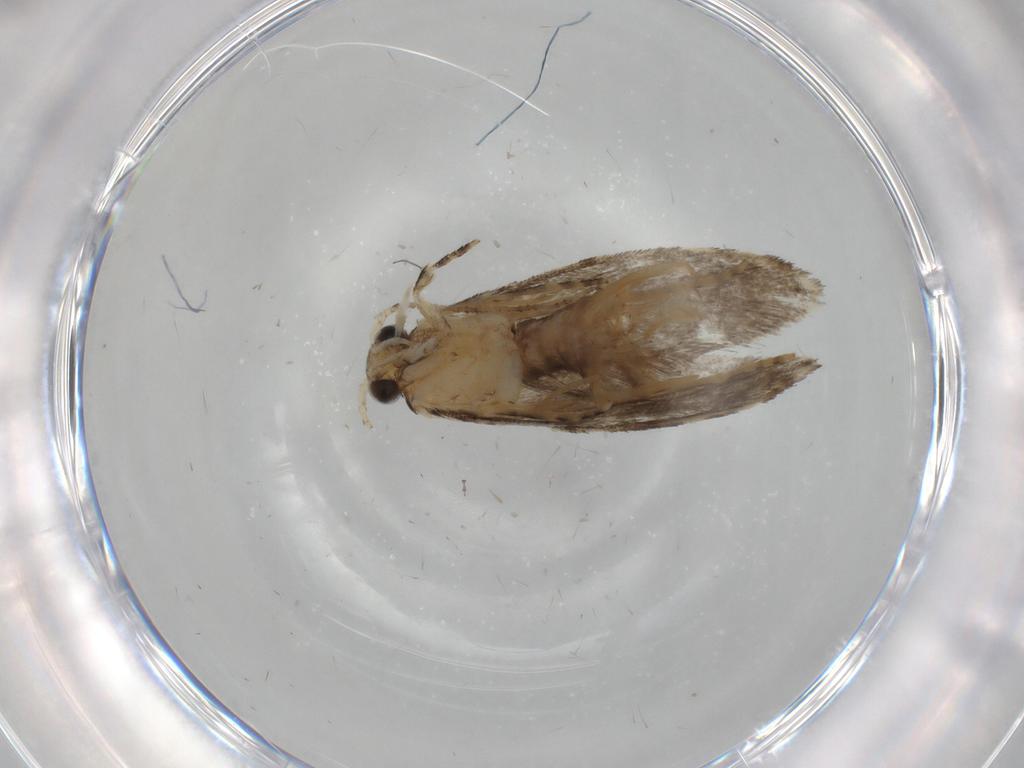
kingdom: Animalia
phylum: Arthropoda
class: Insecta
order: Lepidoptera
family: Tineidae
